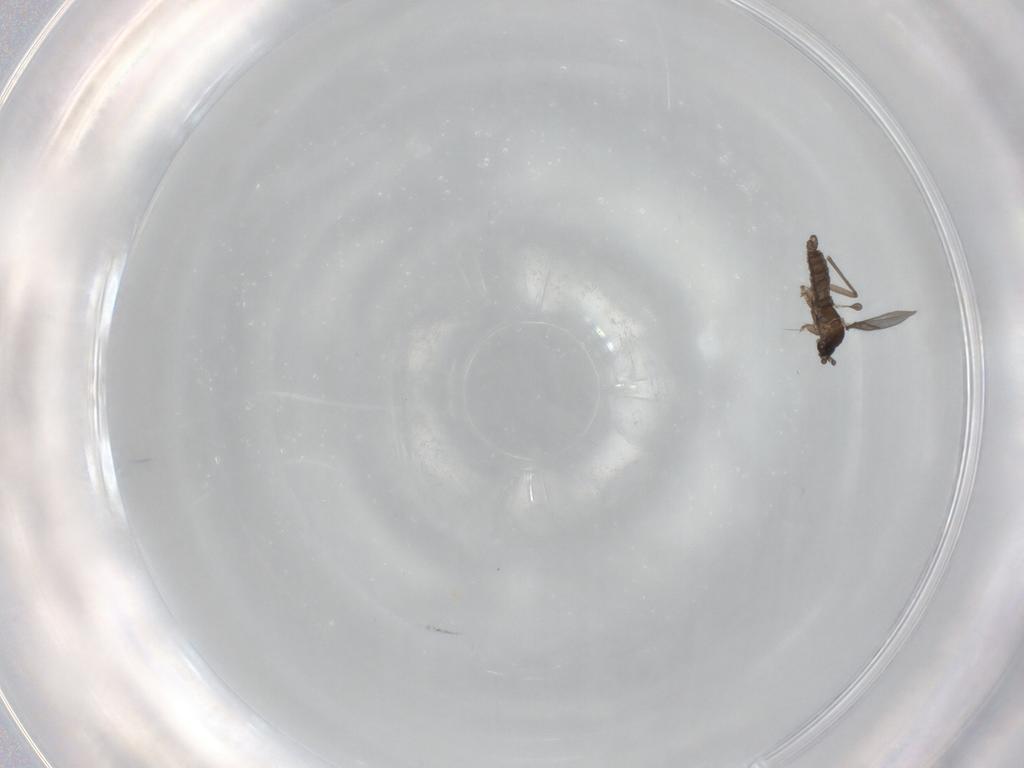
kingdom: Animalia
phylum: Arthropoda
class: Insecta
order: Diptera
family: Sciaridae
